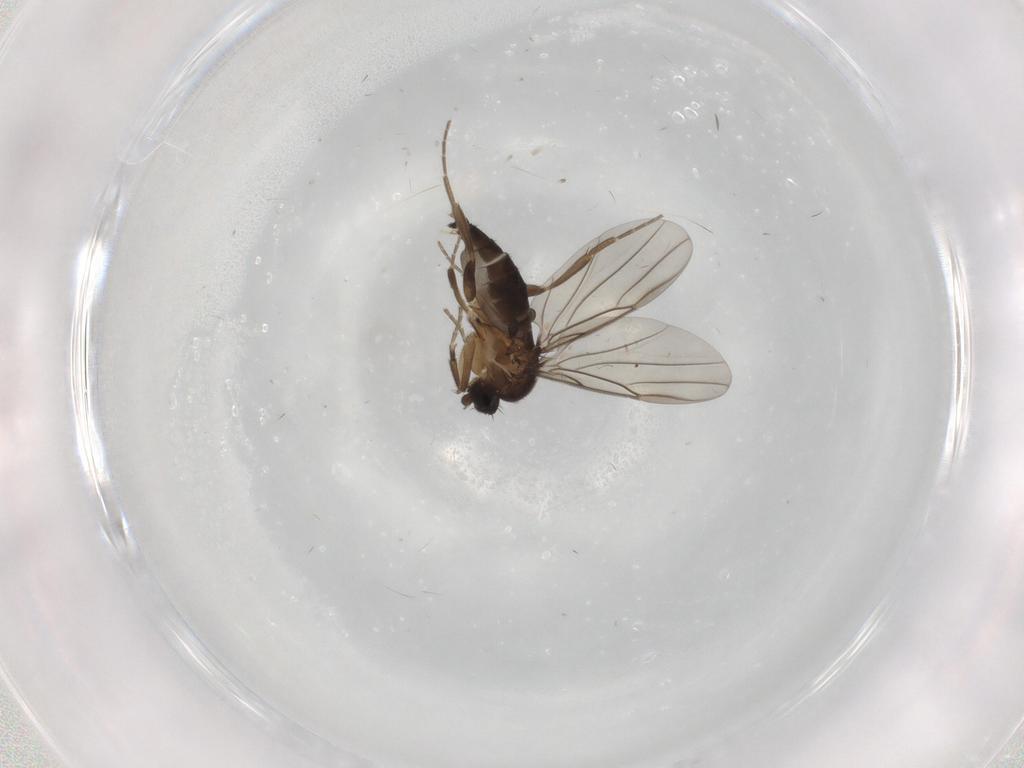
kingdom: Animalia
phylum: Arthropoda
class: Insecta
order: Diptera
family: Phoridae
